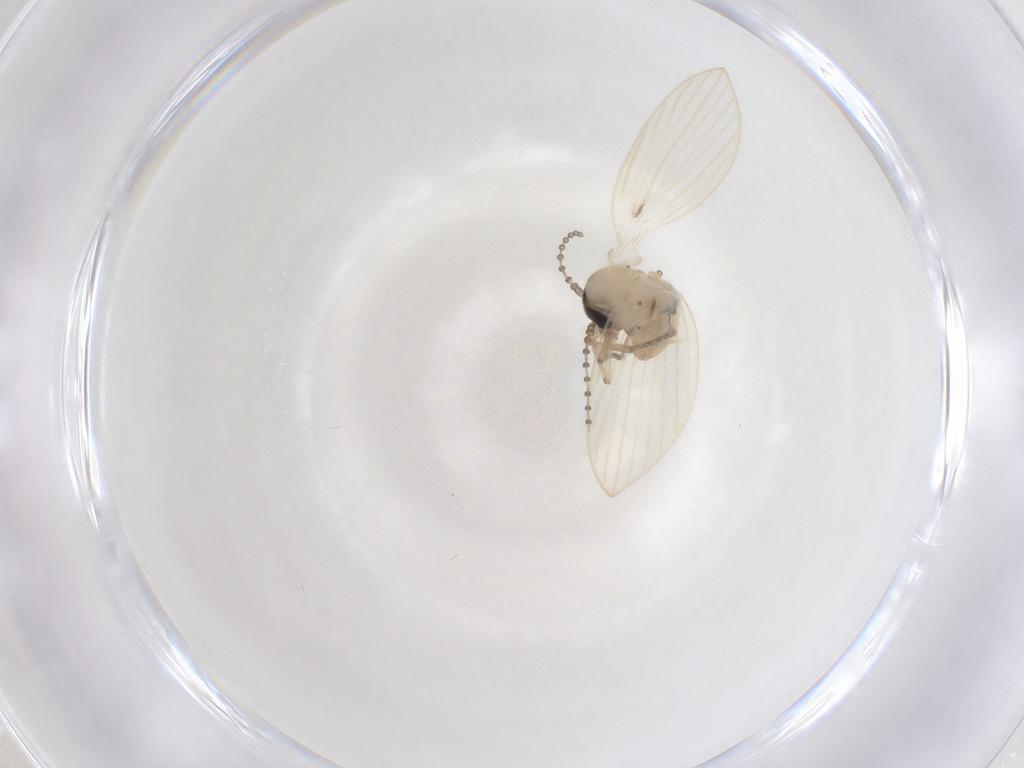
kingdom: Animalia
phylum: Arthropoda
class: Insecta
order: Diptera
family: Psychodidae
